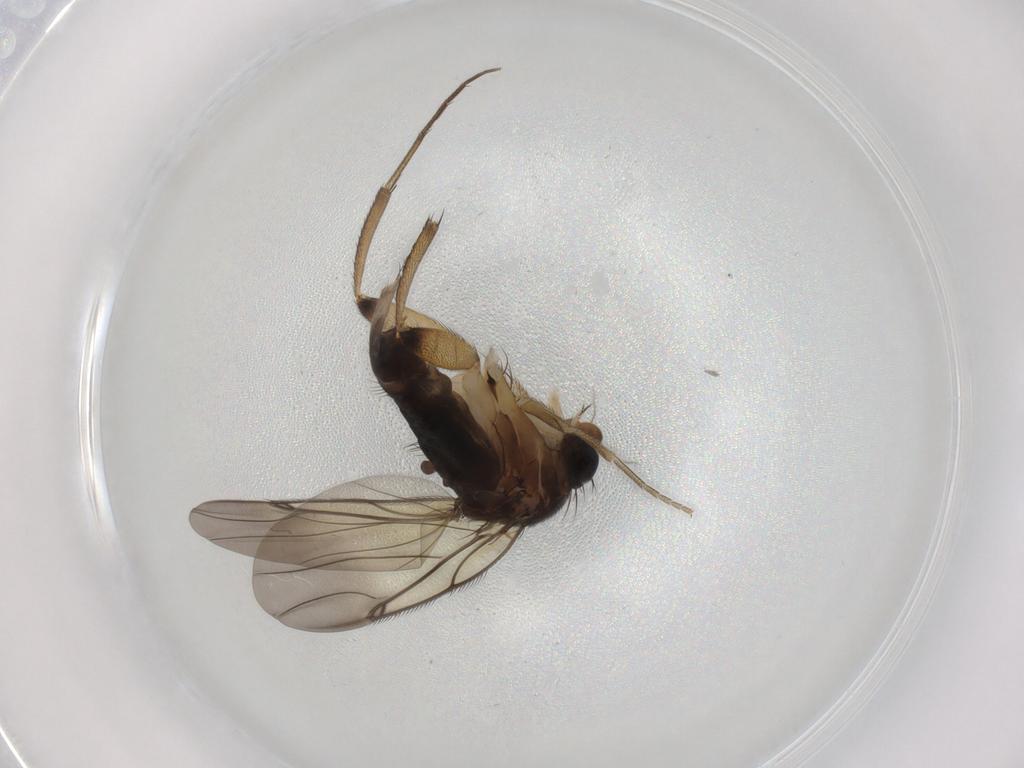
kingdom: Animalia
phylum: Arthropoda
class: Insecta
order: Diptera
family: Phoridae
